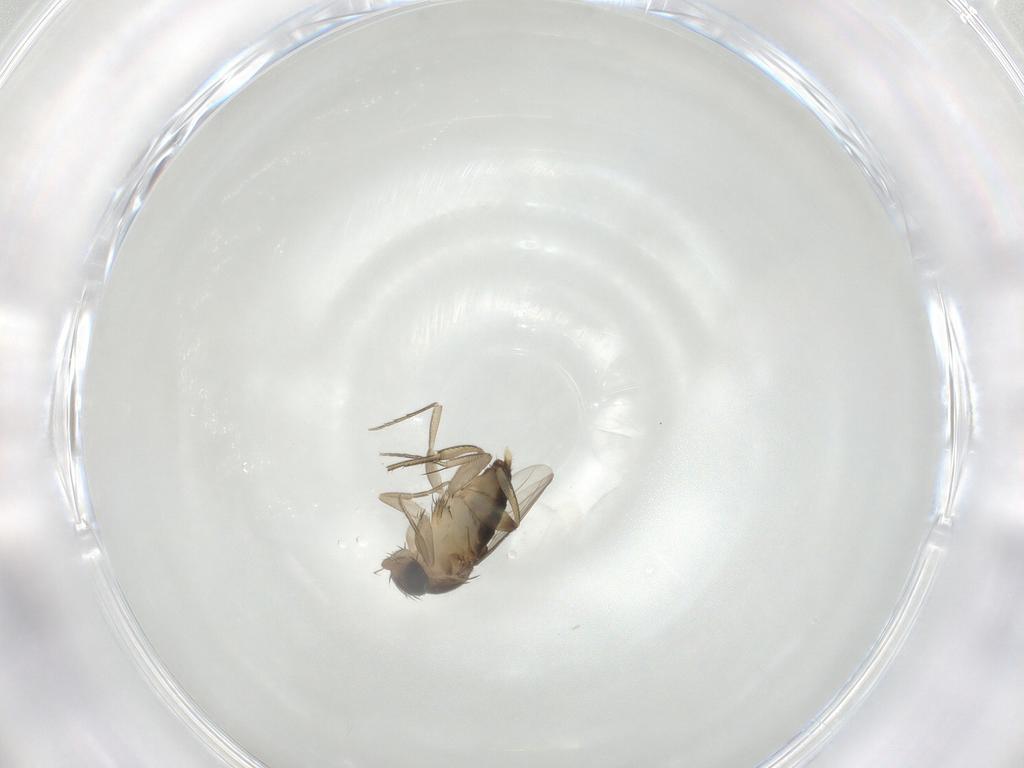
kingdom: Animalia
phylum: Arthropoda
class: Insecta
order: Diptera
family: Phoridae
